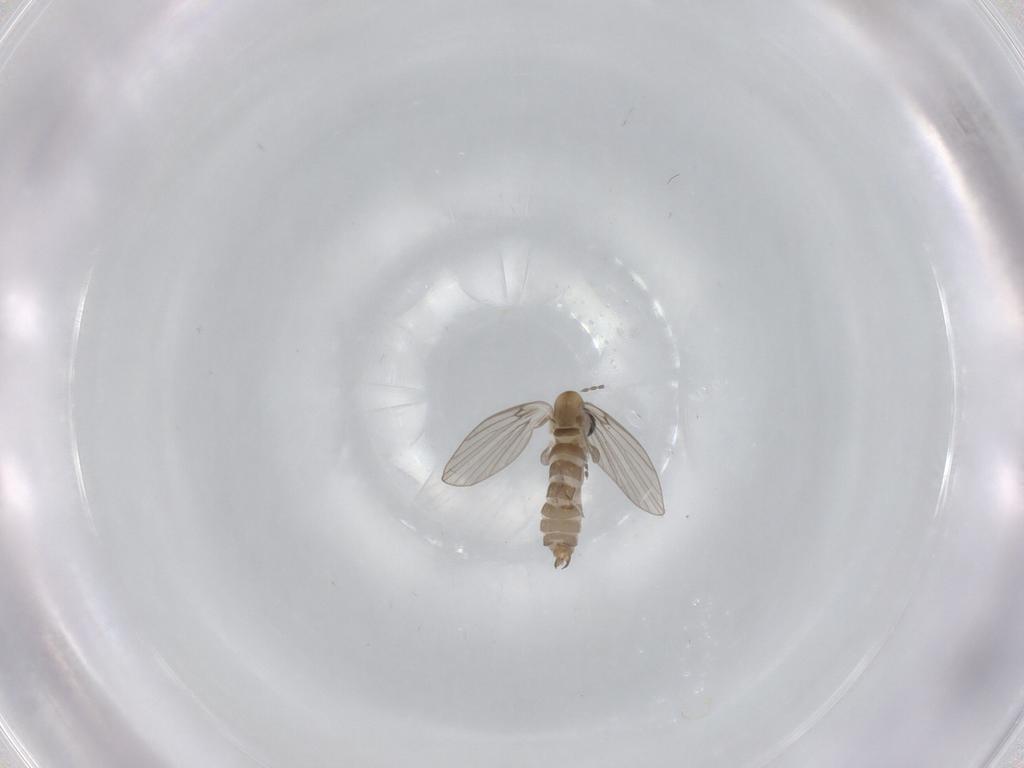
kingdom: Animalia
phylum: Arthropoda
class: Insecta
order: Diptera
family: Psychodidae
